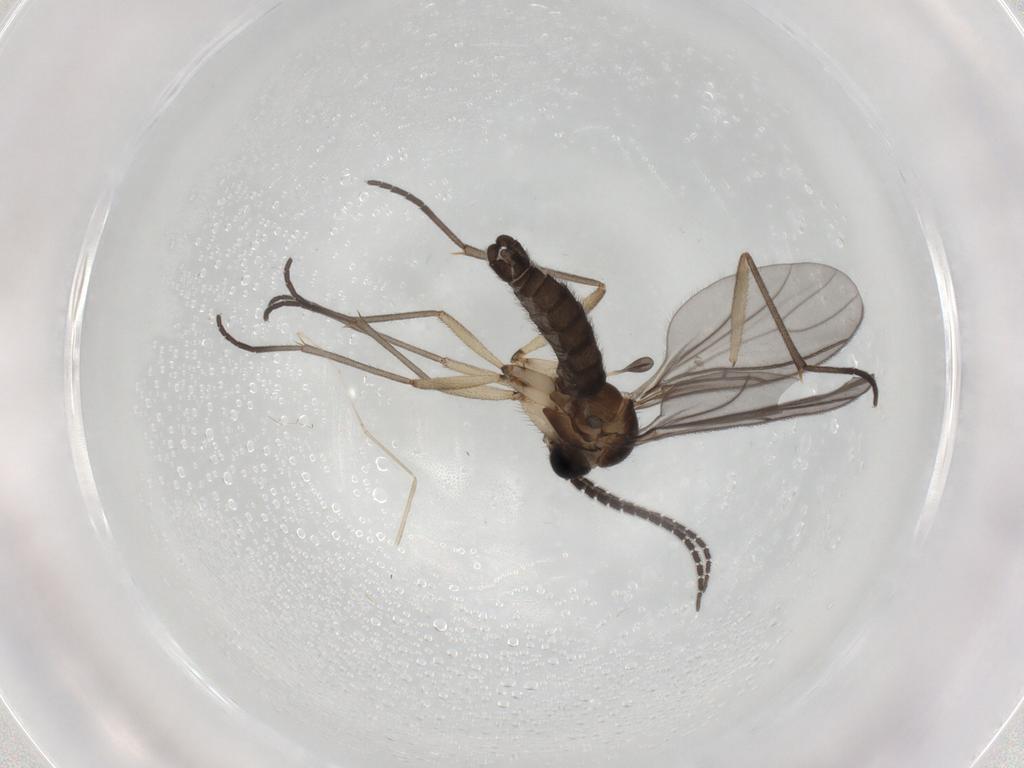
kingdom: Animalia
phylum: Arthropoda
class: Insecta
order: Diptera
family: Sciaridae
